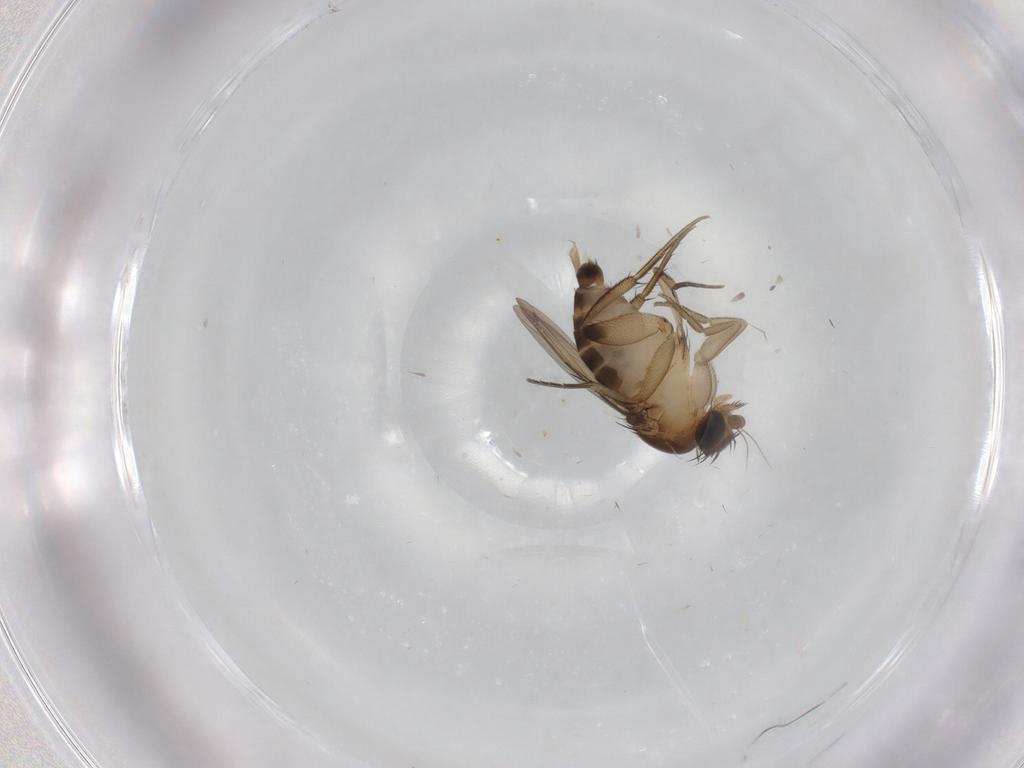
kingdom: Animalia
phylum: Arthropoda
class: Insecta
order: Diptera
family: Phoridae
